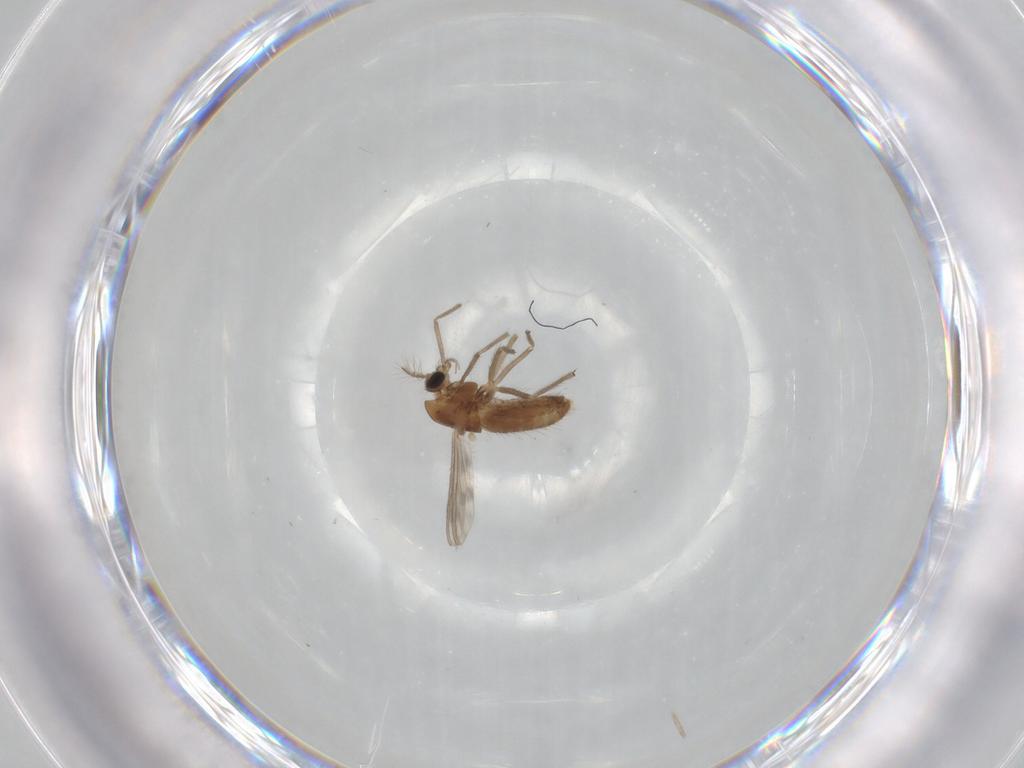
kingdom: Animalia
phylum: Arthropoda
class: Insecta
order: Diptera
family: Chironomidae
